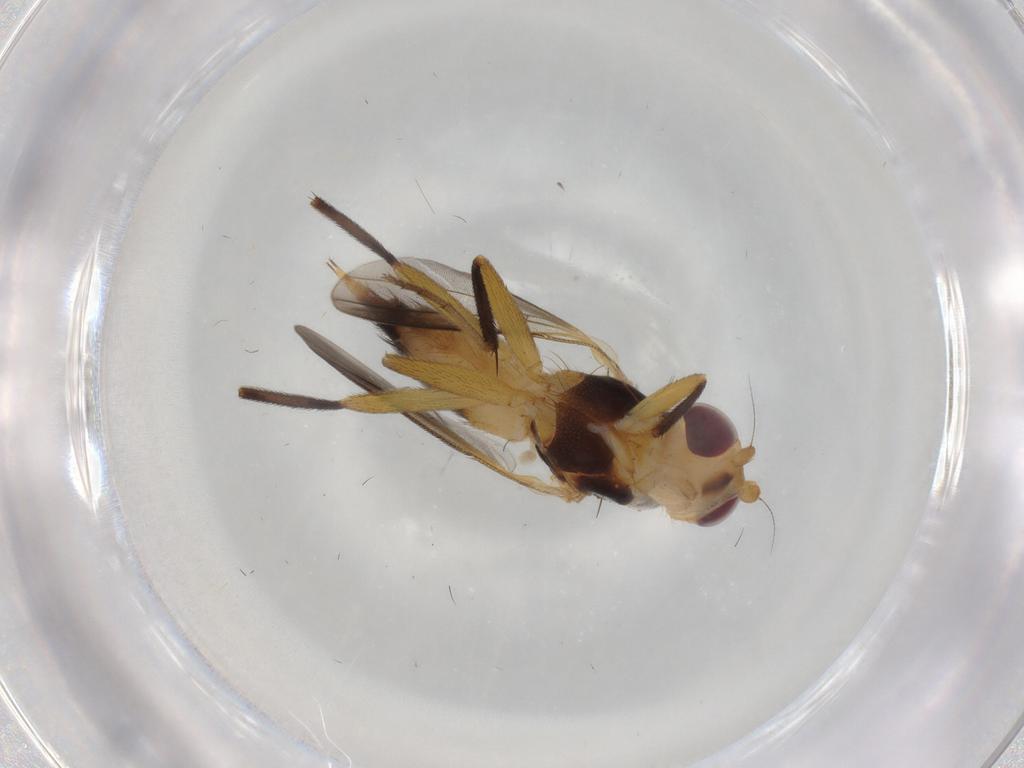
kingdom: Animalia
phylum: Arthropoda
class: Insecta
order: Diptera
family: Heleomyzidae
